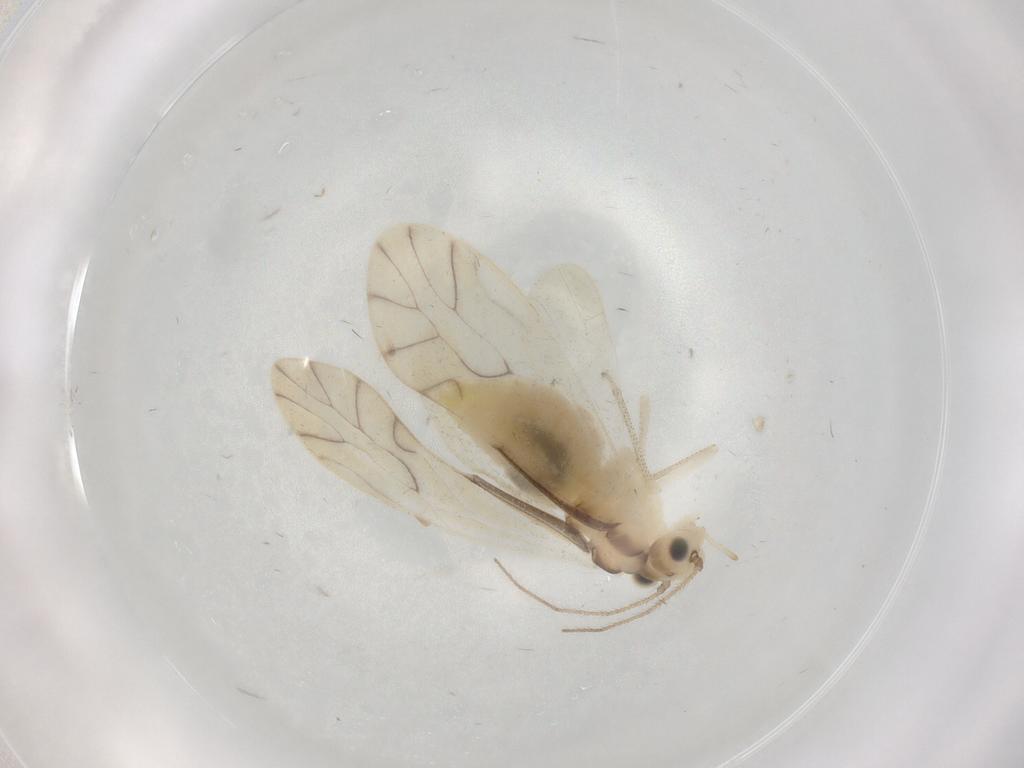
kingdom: Animalia
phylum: Arthropoda
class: Insecta
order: Psocodea
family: Caeciliusidae
